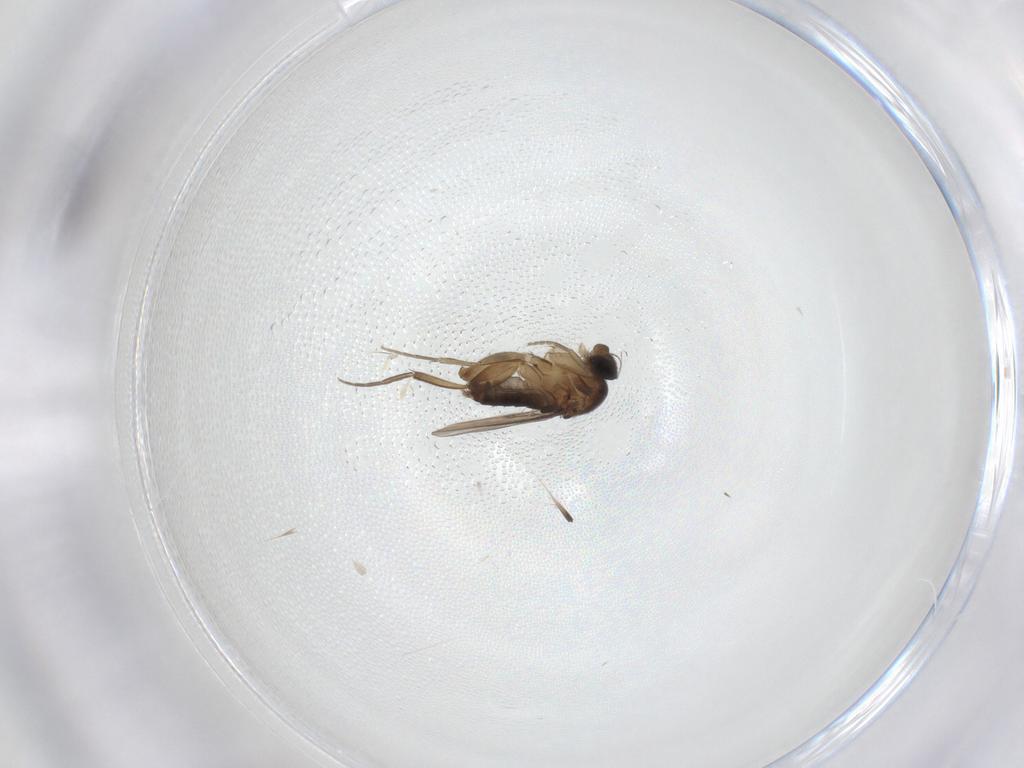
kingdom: Animalia
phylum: Arthropoda
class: Insecta
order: Diptera
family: Phoridae
